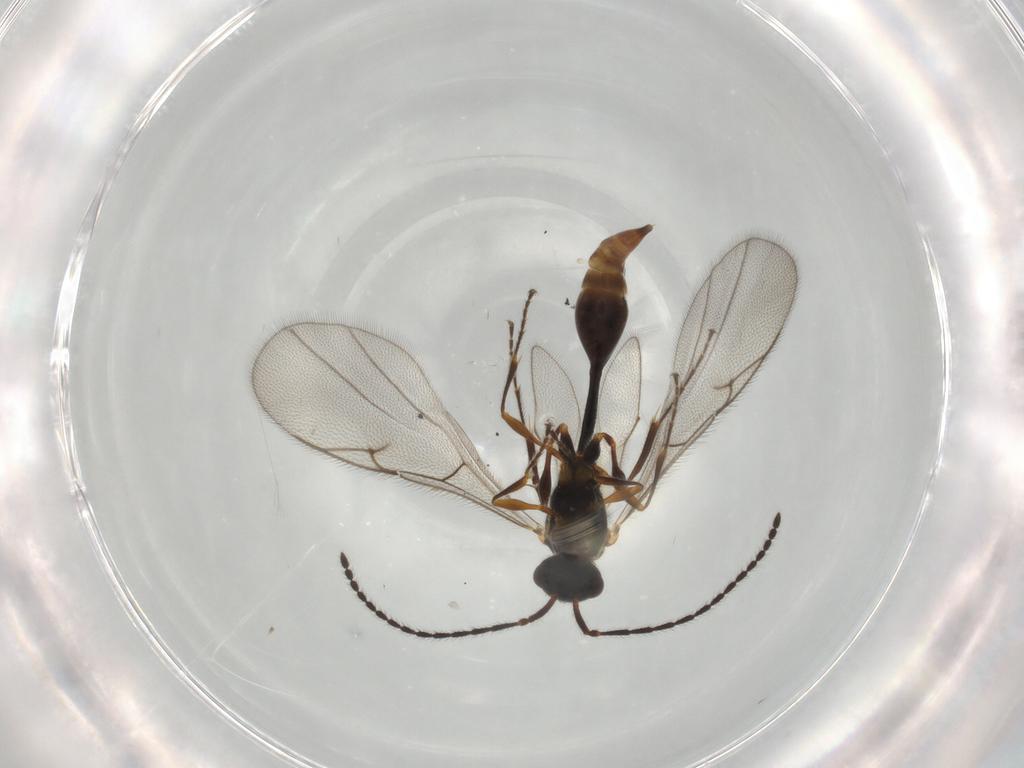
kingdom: Animalia
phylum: Arthropoda
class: Insecta
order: Hymenoptera
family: Diapriidae
